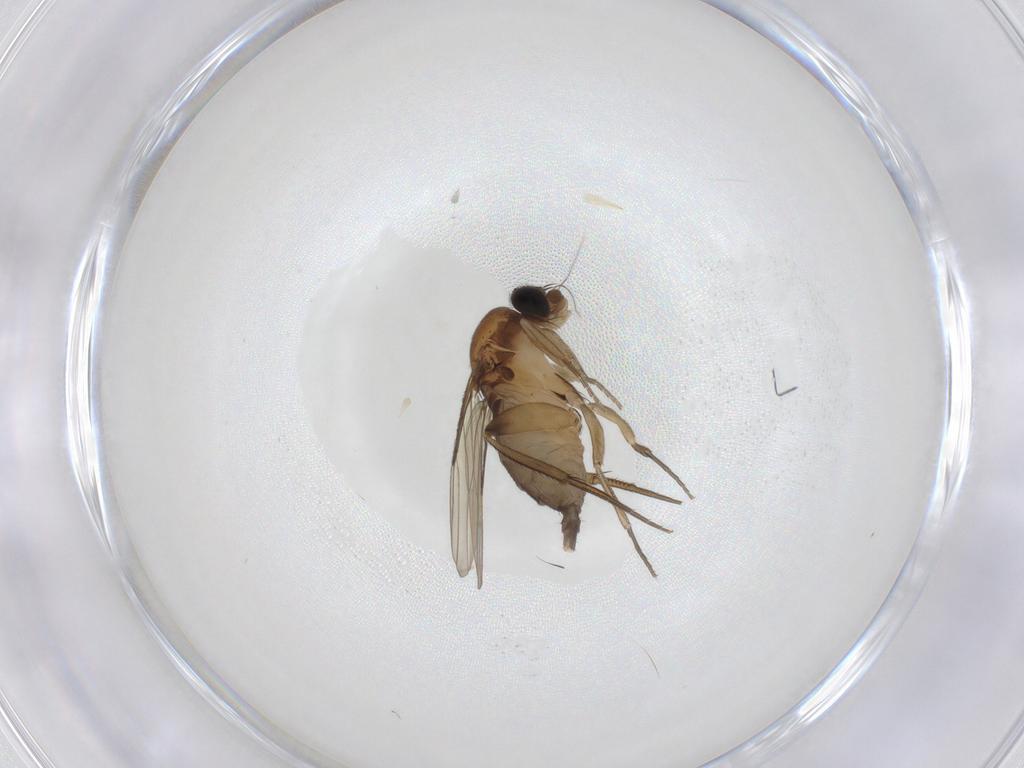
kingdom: Animalia
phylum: Arthropoda
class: Insecta
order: Diptera
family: Phoridae
